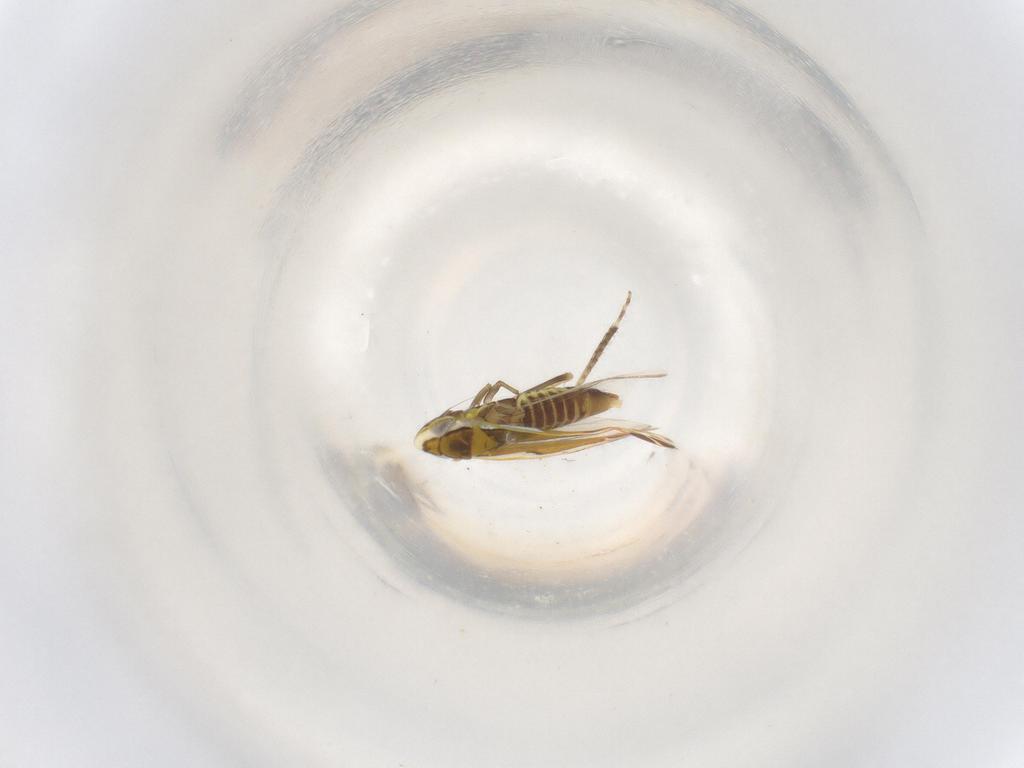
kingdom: Animalia
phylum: Arthropoda
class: Insecta
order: Hemiptera
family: Cicadellidae
